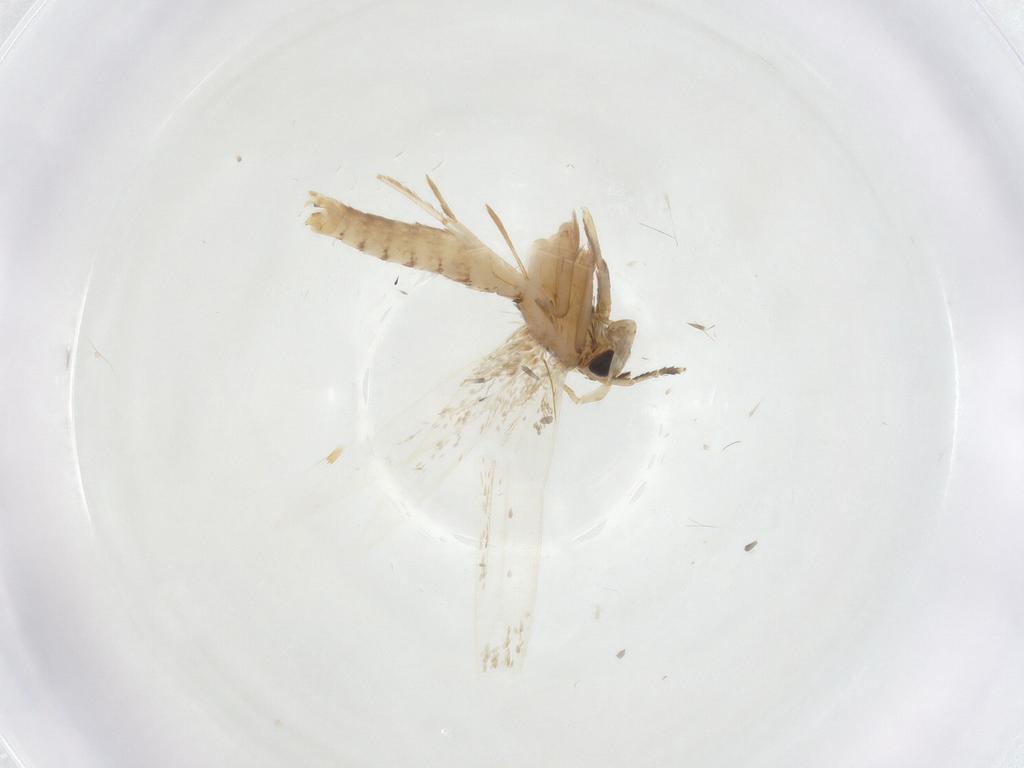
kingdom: Animalia
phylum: Arthropoda
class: Insecta
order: Lepidoptera
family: Tineidae
